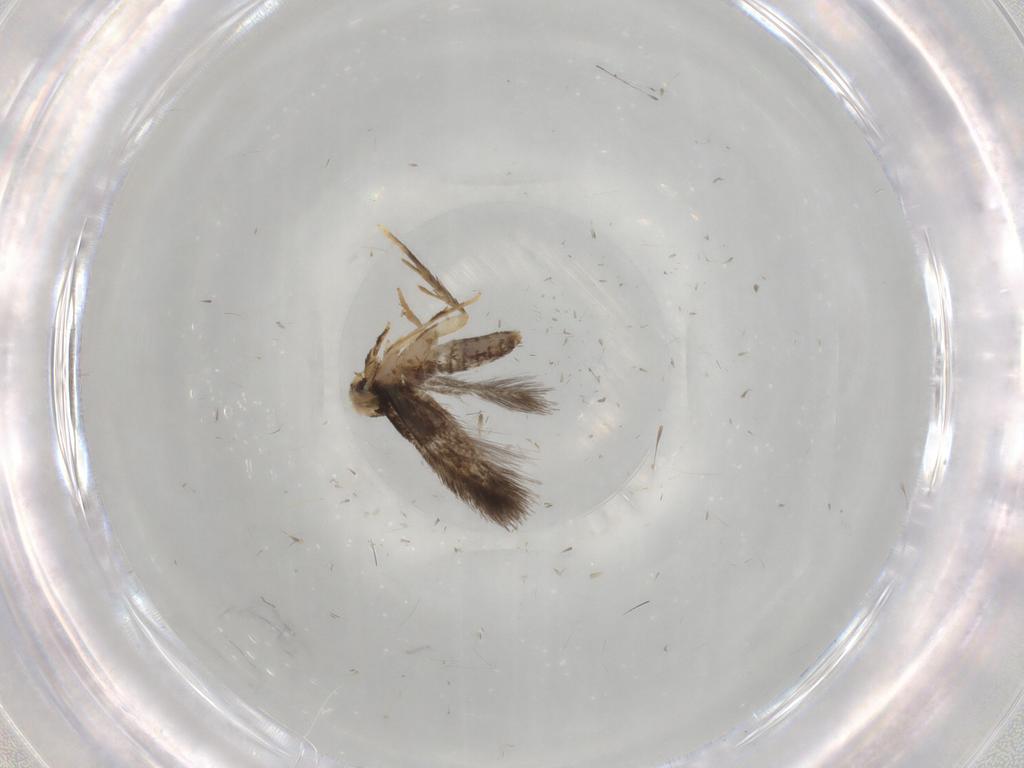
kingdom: Animalia
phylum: Arthropoda
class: Insecta
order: Lepidoptera
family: Nepticulidae
